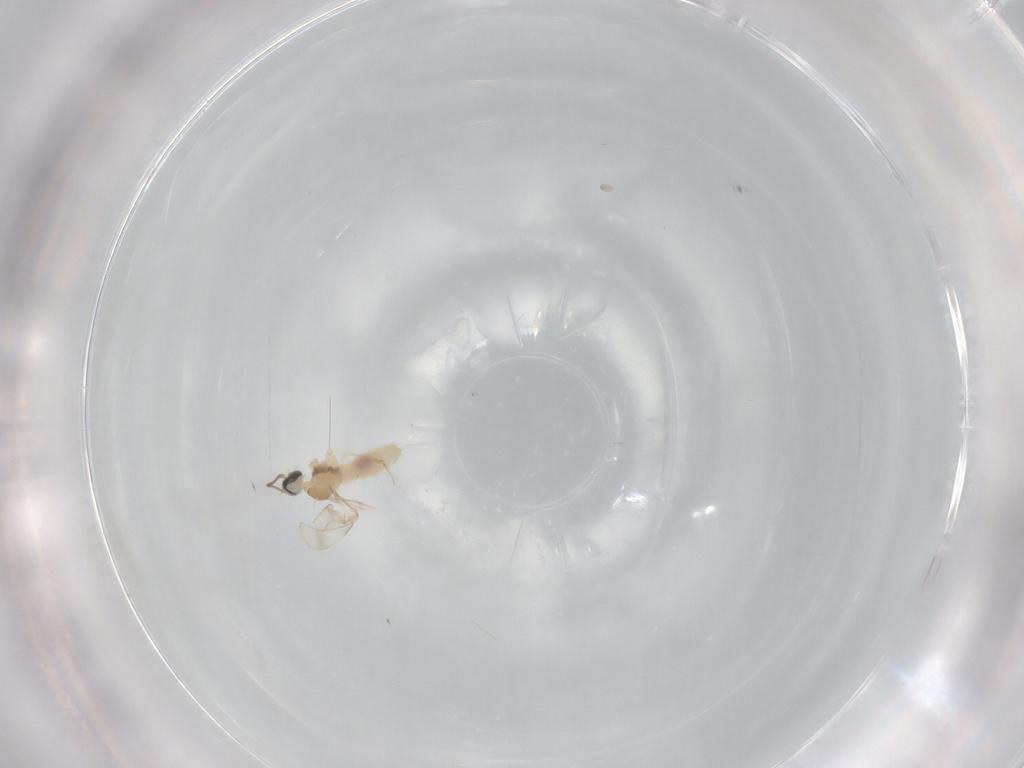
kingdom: Animalia
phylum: Arthropoda
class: Insecta
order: Diptera
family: Cecidomyiidae
